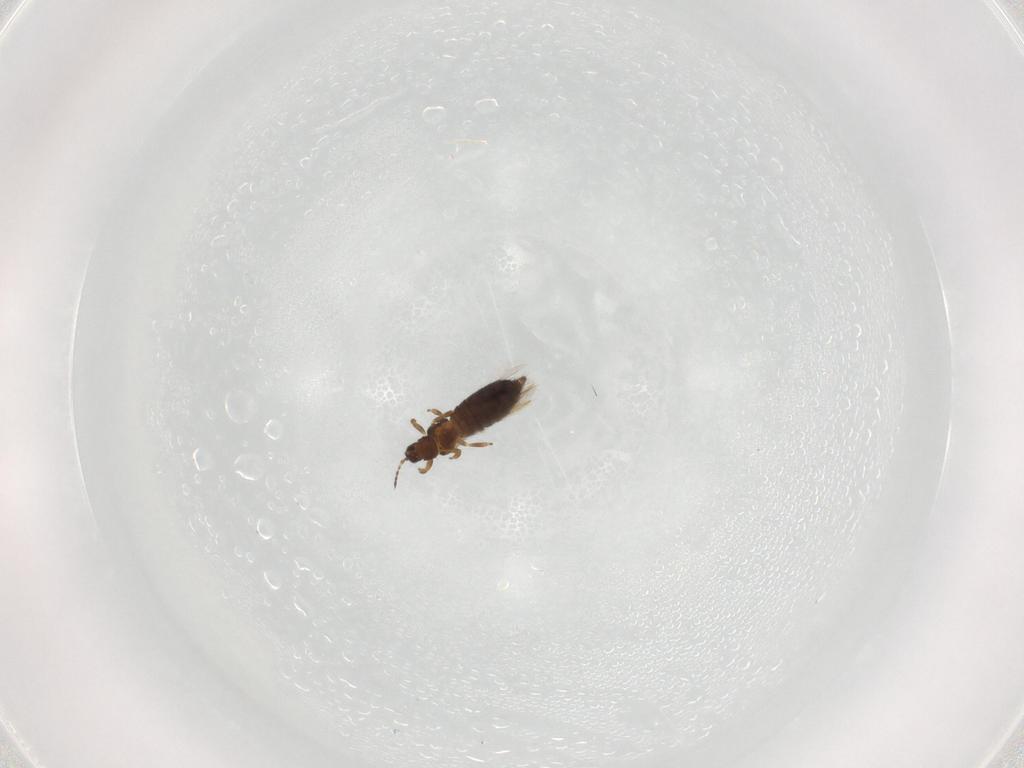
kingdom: Animalia
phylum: Arthropoda
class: Insecta
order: Thysanoptera
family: Thripidae
